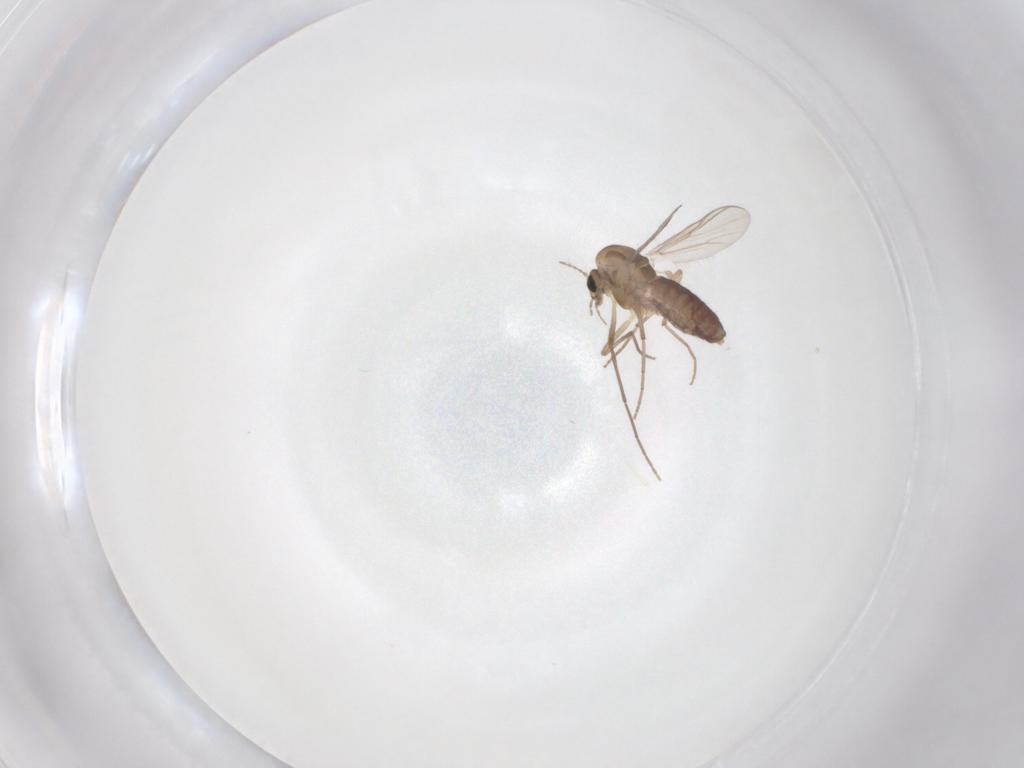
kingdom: Animalia
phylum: Arthropoda
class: Insecta
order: Diptera
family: Chironomidae
